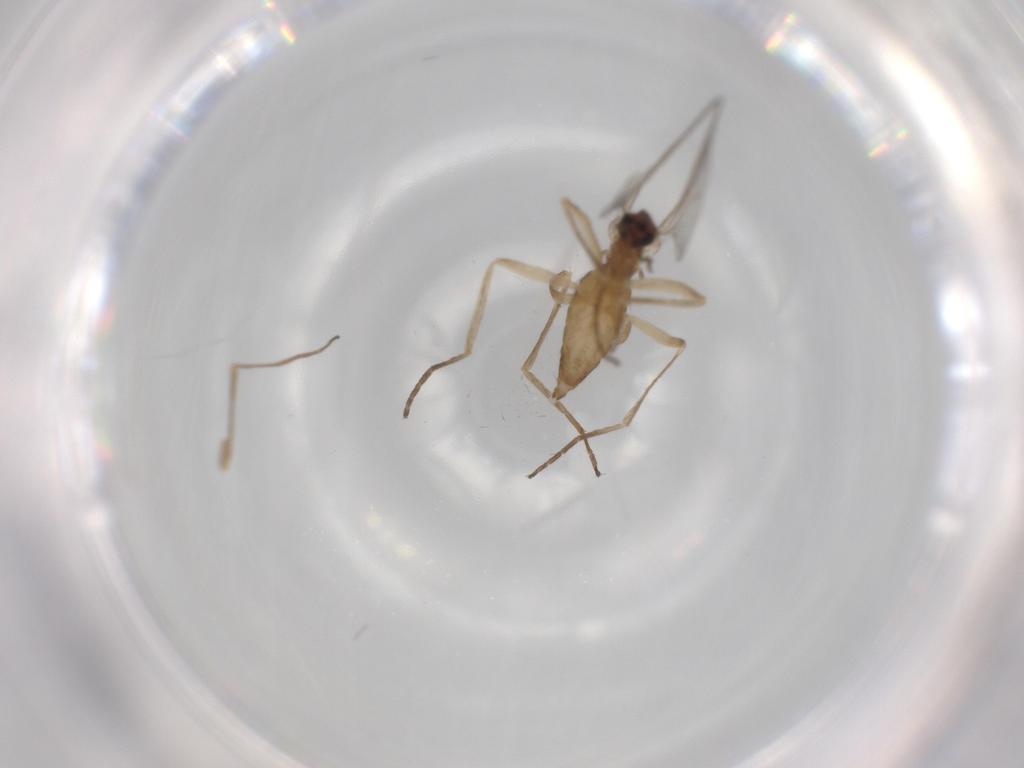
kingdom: Animalia
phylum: Arthropoda
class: Insecta
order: Diptera
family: Cecidomyiidae
